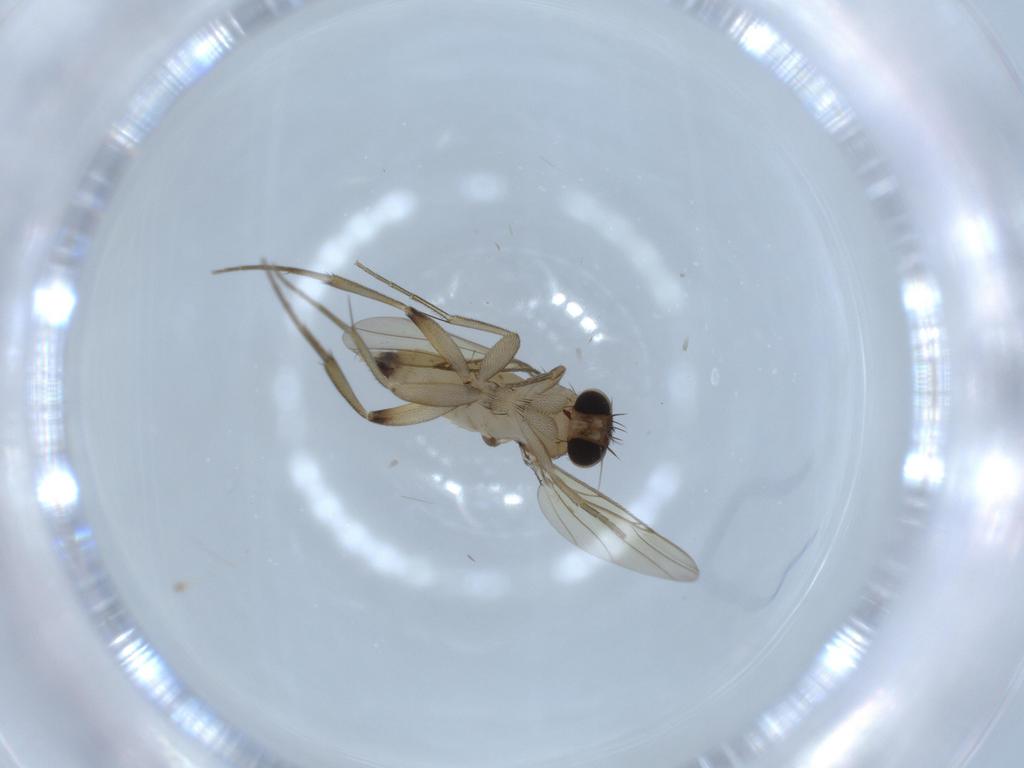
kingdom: Animalia
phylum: Arthropoda
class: Insecta
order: Diptera
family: Phoridae
